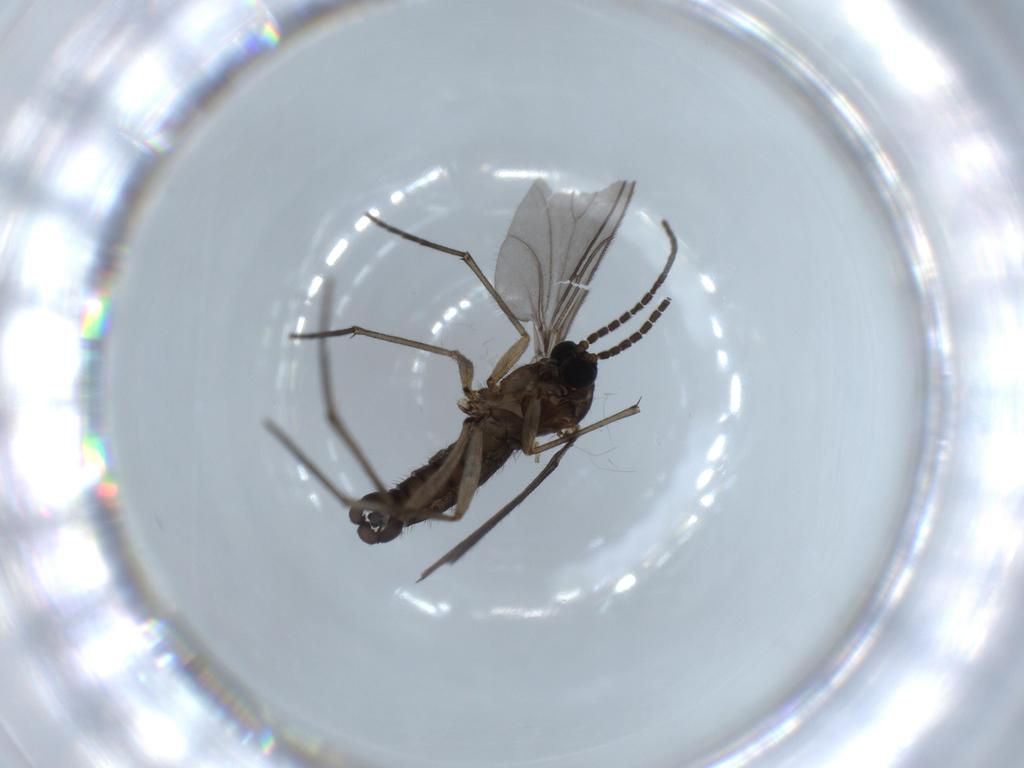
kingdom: Animalia
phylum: Arthropoda
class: Insecta
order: Diptera
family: Sciaridae
